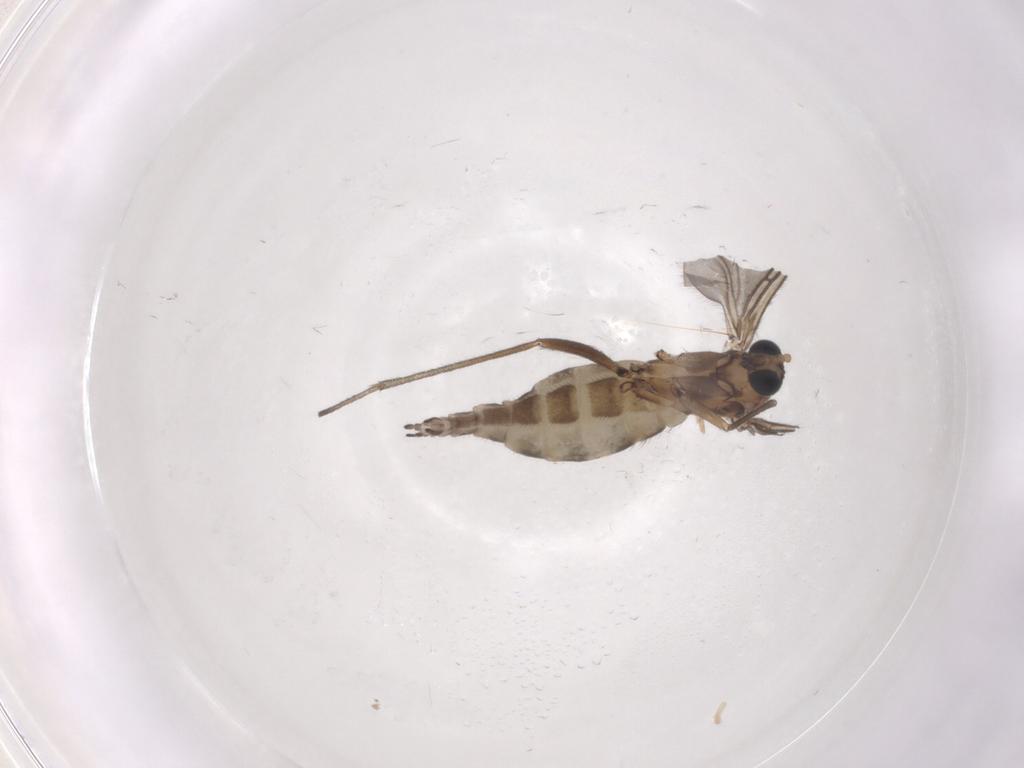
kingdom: Animalia
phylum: Arthropoda
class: Insecta
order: Diptera
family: Sciaridae
